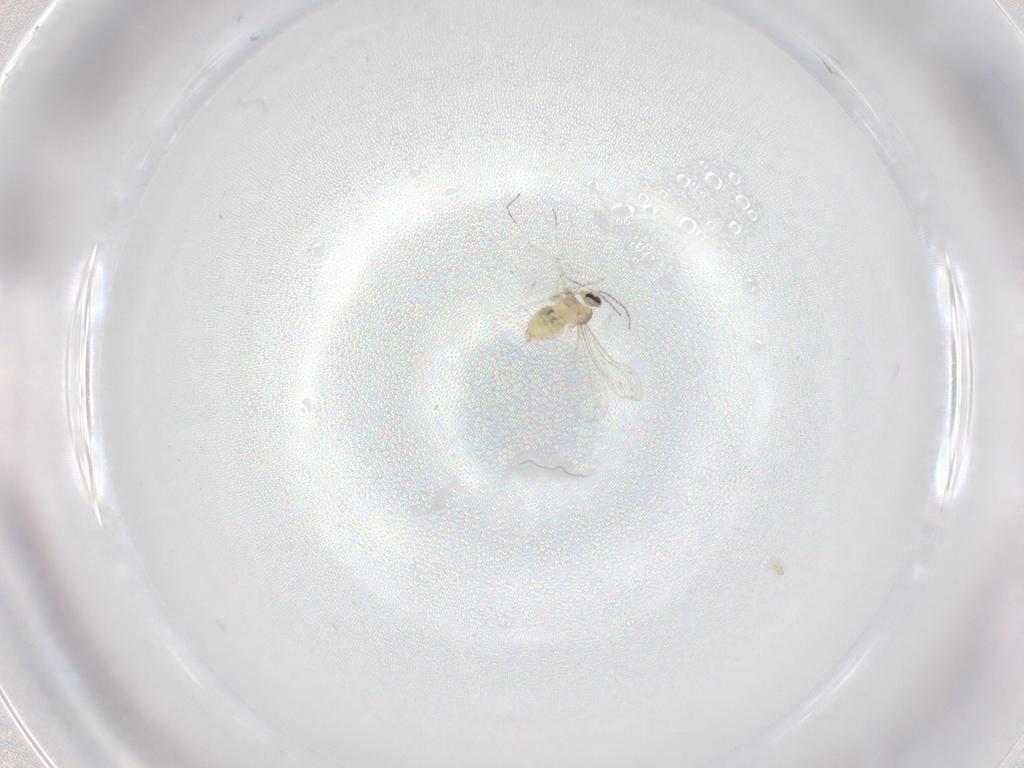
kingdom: Animalia
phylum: Arthropoda
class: Insecta
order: Diptera
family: Cecidomyiidae
